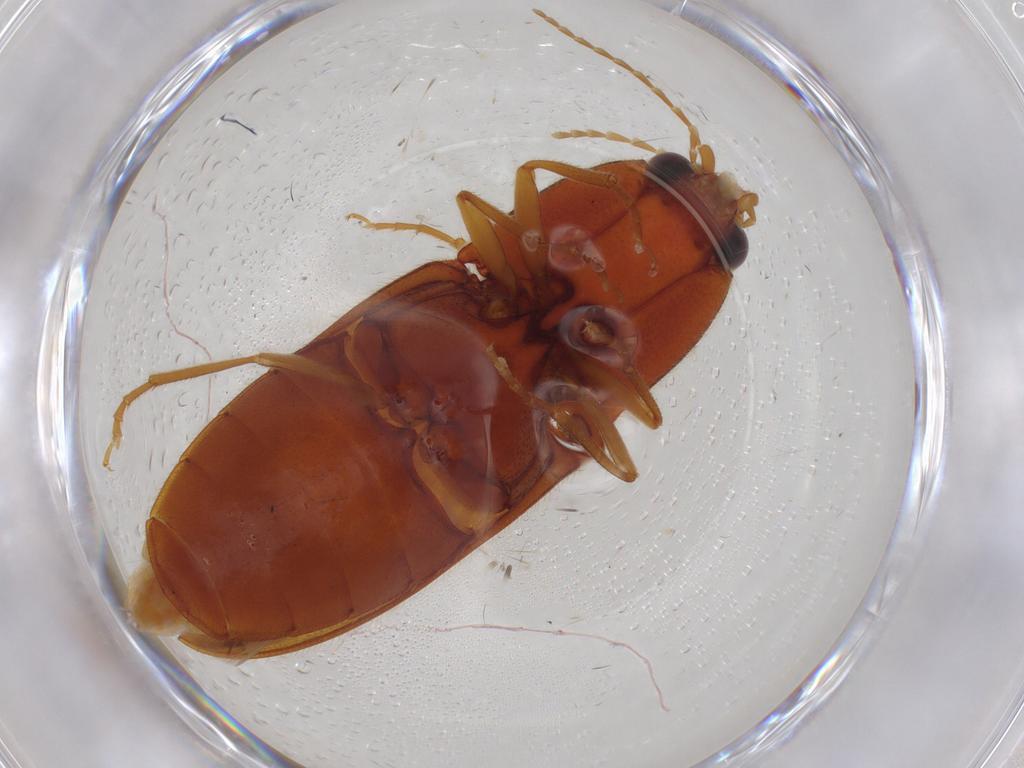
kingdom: Animalia
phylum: Arthropoda
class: Insecta
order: Coleoptera
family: Elateridae
